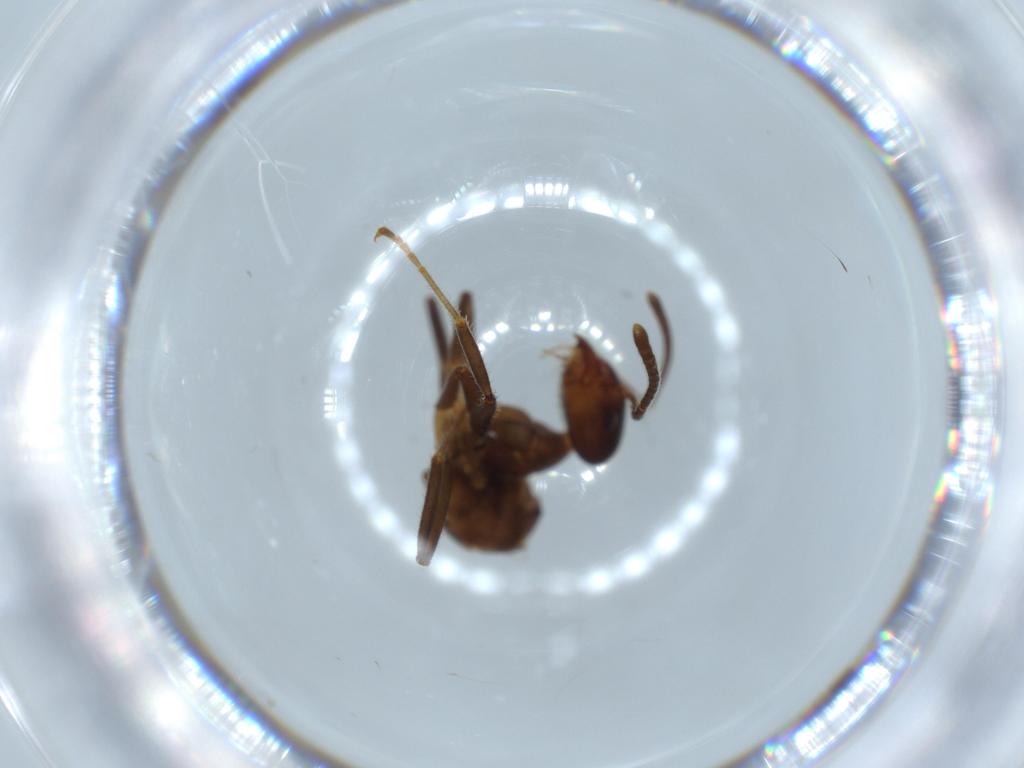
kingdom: Animalia
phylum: Arthropoda
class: Insecta
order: Hymenoptera
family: Formicidae
